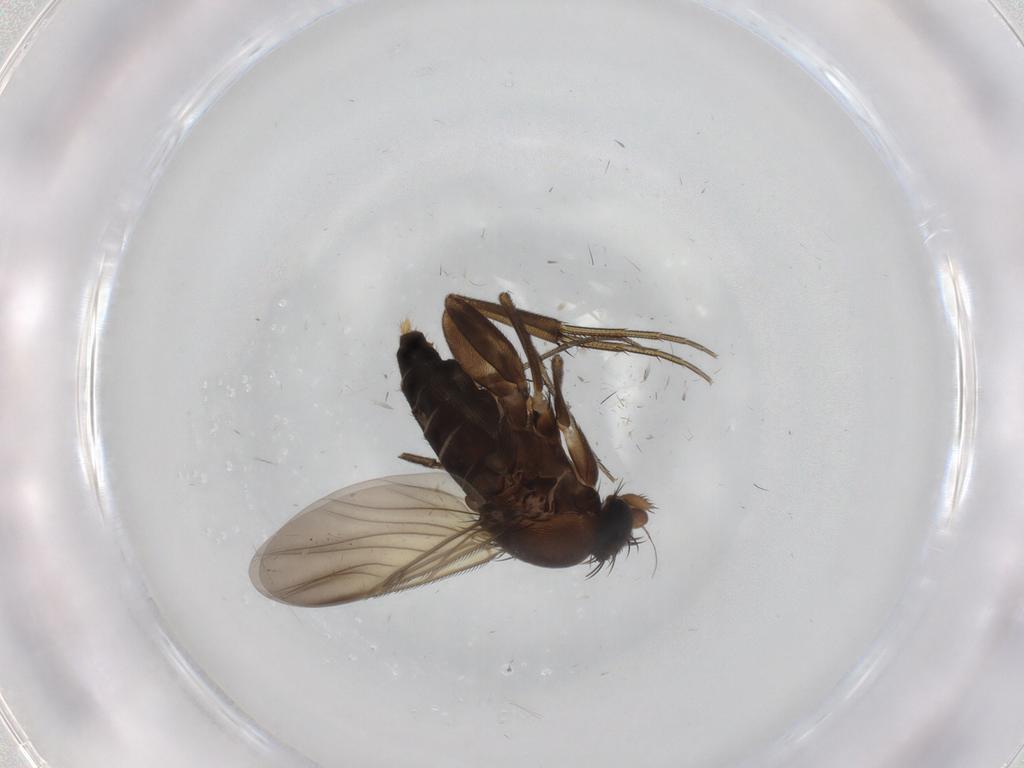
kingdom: Animalia
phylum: Arthropoda
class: Insecta
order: Diptera
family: Phoridae
